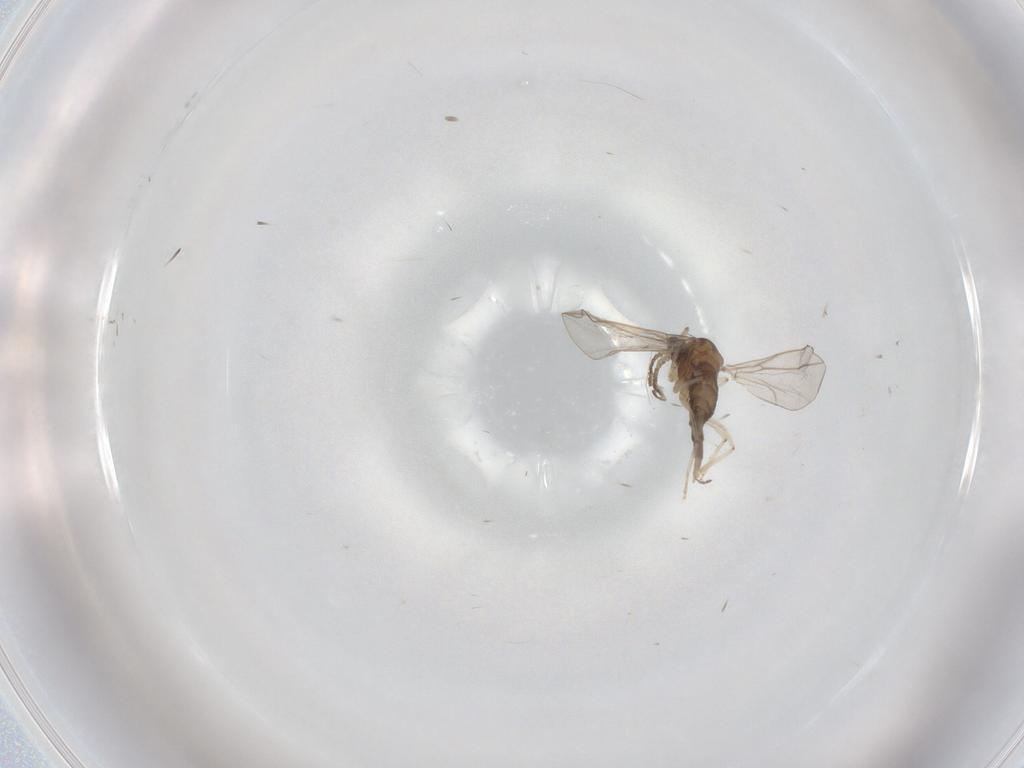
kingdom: Animalia
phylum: Arthropoda
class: Insecta
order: Diptera
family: Cecidomyiidae
